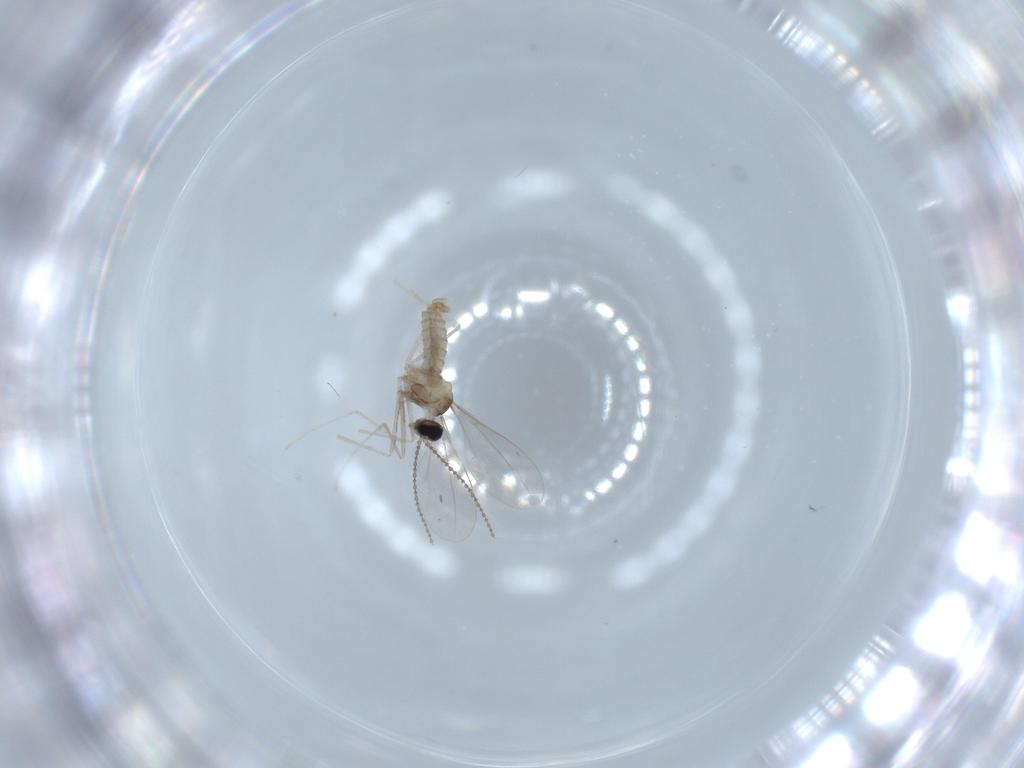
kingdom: Animalia
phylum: Arthropoda
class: Insecta
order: Diptera
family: Cecidomyiidae
